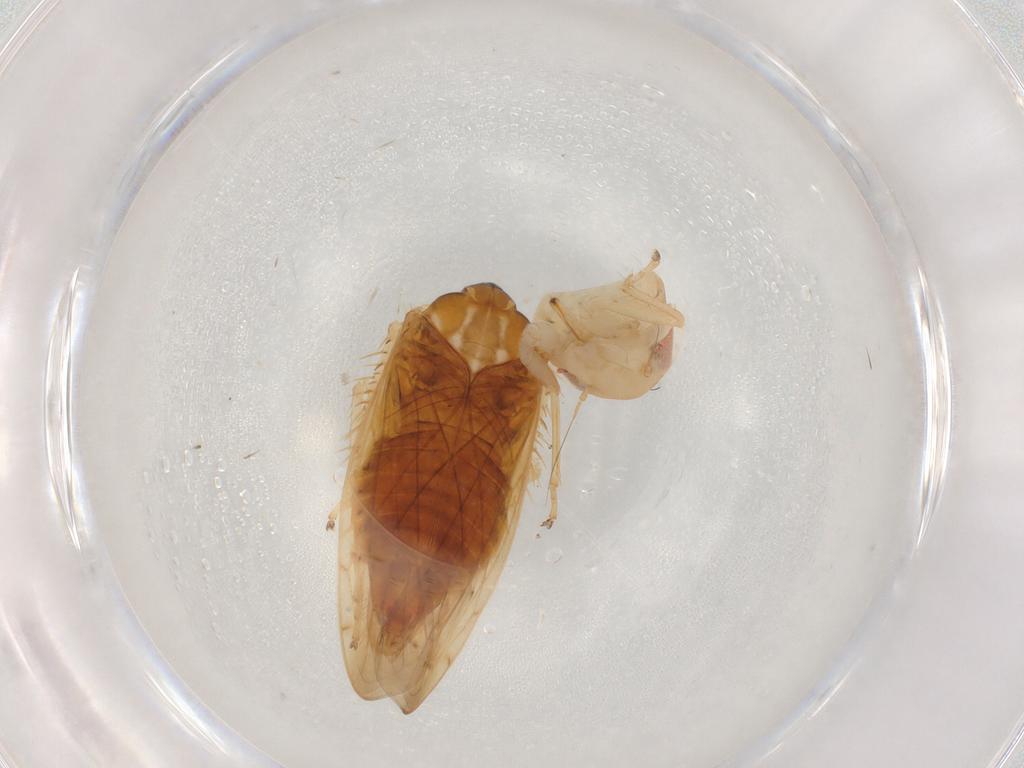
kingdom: Animalia
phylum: Arthropoda
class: Insecta
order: Hemiptera
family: Cicadellidae
